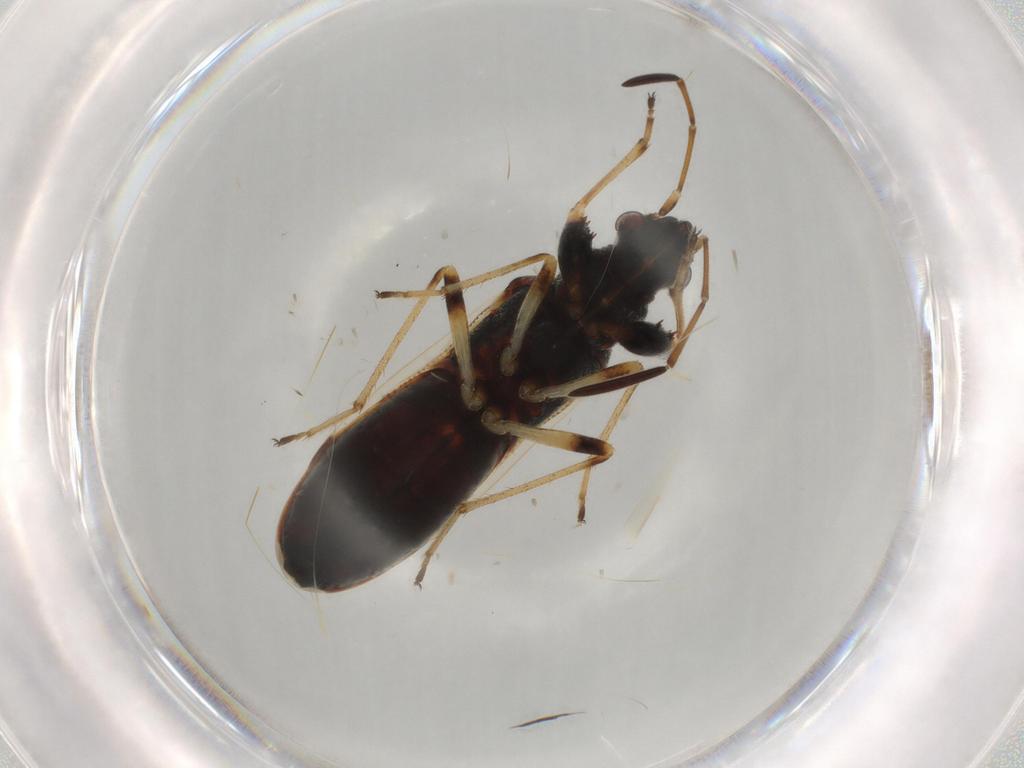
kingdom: Animalia
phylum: Arthropoda
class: Insecta
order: Hemiptera
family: Rhyparochromidae
